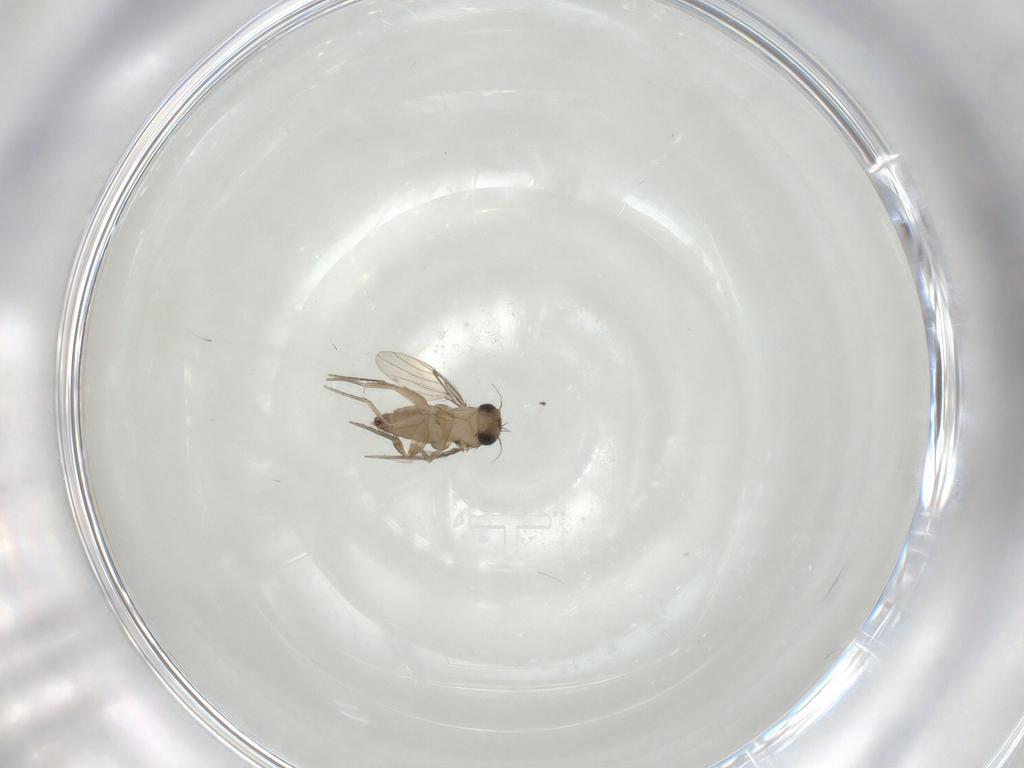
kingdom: Animalia
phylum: Arthropoda
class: Insecta
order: Diptera
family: Phoridae
